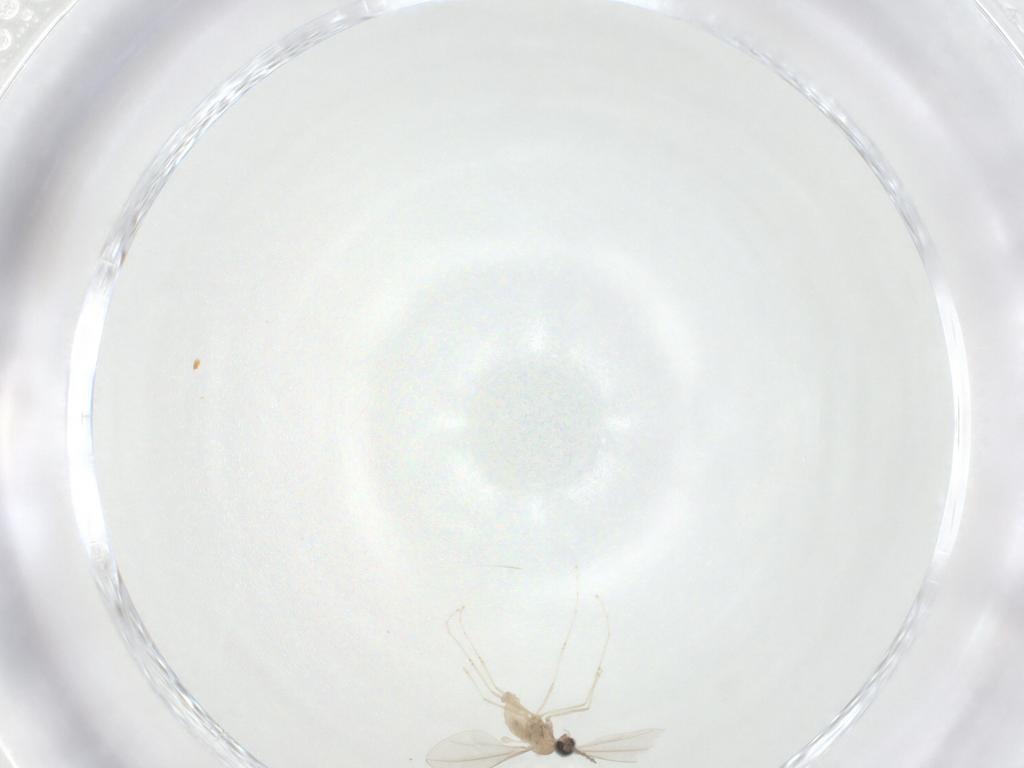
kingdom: Animalia
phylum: Arthropoda
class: Insecta
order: Diptera
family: Cecidomyiidae
